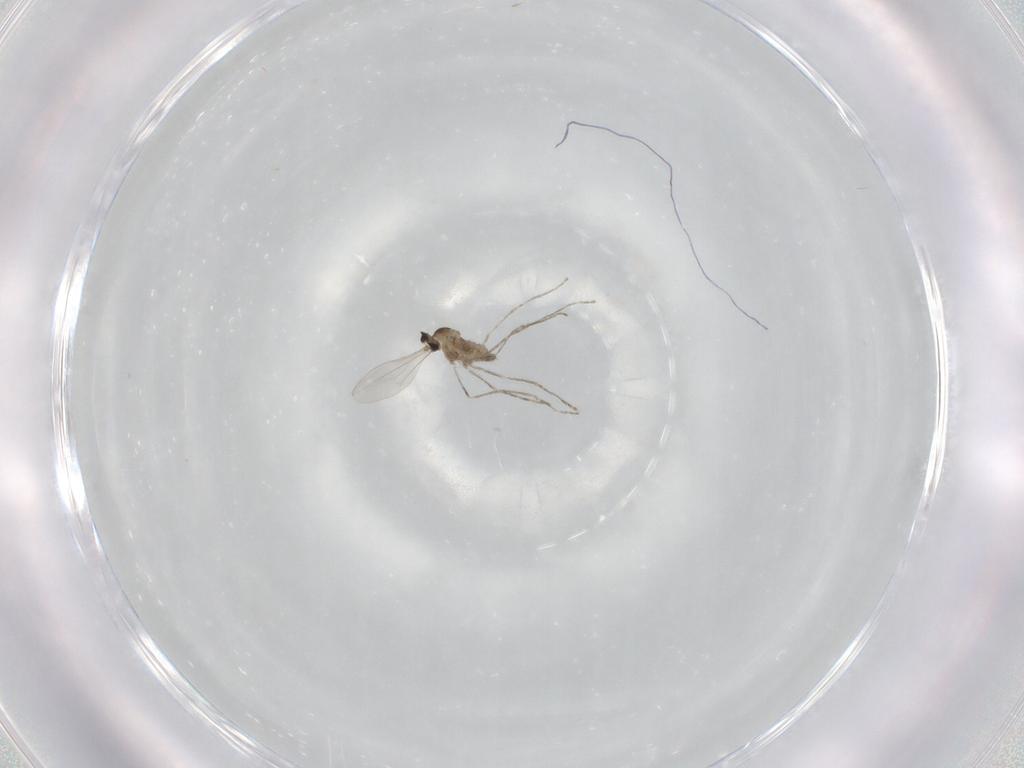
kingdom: Animalia
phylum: Arthropoda
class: Insecta
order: Diptera
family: Cecidomyiidae
